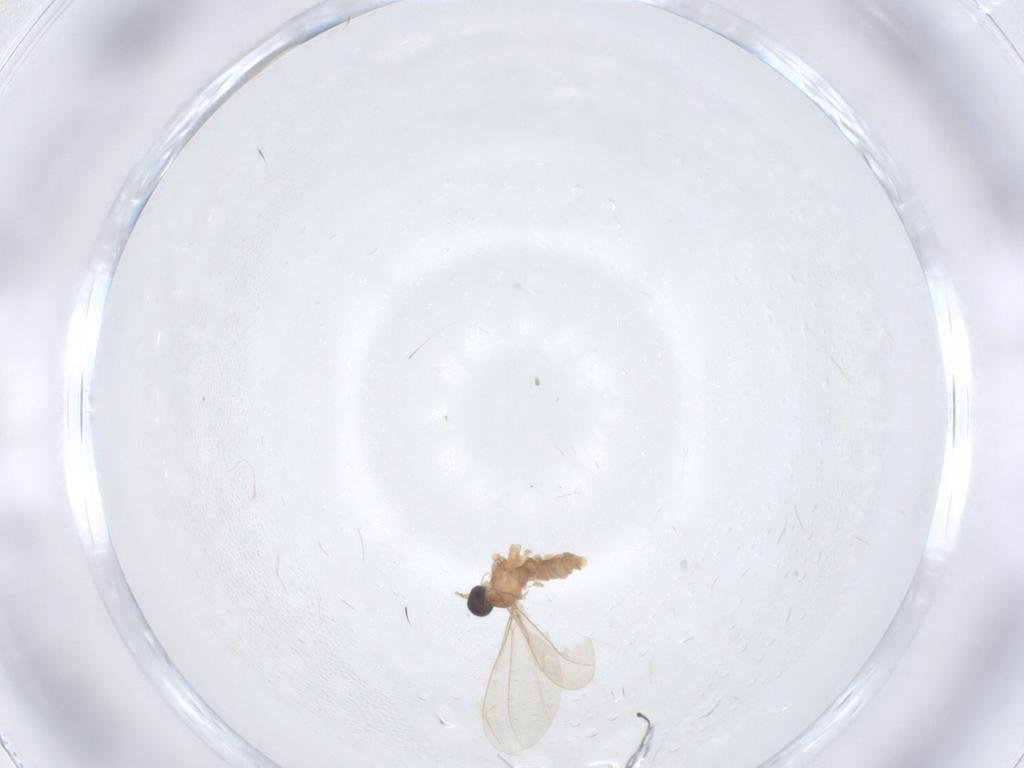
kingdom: Animalia
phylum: Arthropoda
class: Insecta
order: Diptera
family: Cecidomyiidae
